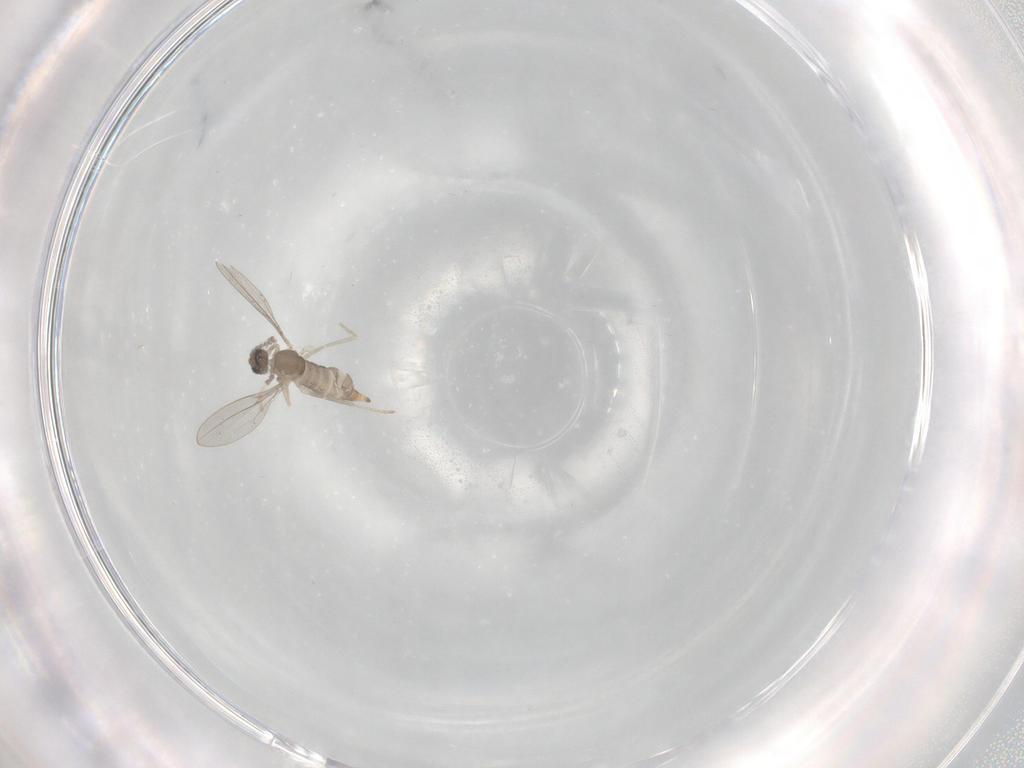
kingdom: Animalia
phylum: Arthropoda
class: Insecta
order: Diptera
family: Cecidomyiidae
